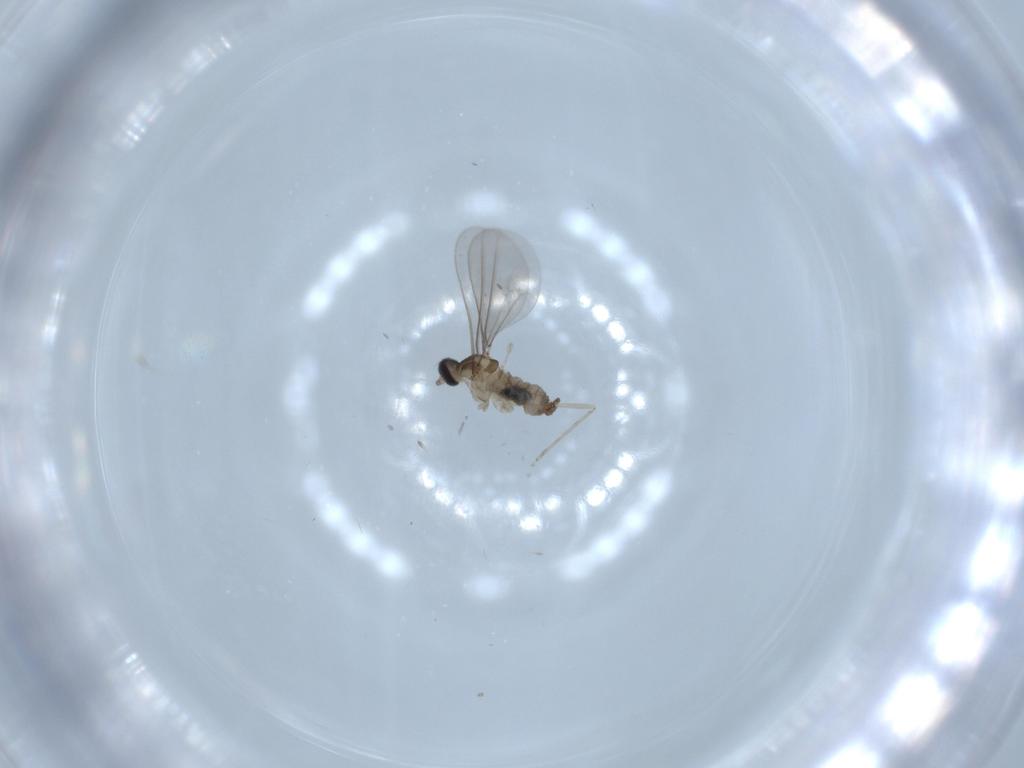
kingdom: Animalia
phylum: Arthropoda
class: Insecta
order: Diptera
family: Cecidomyiidae
